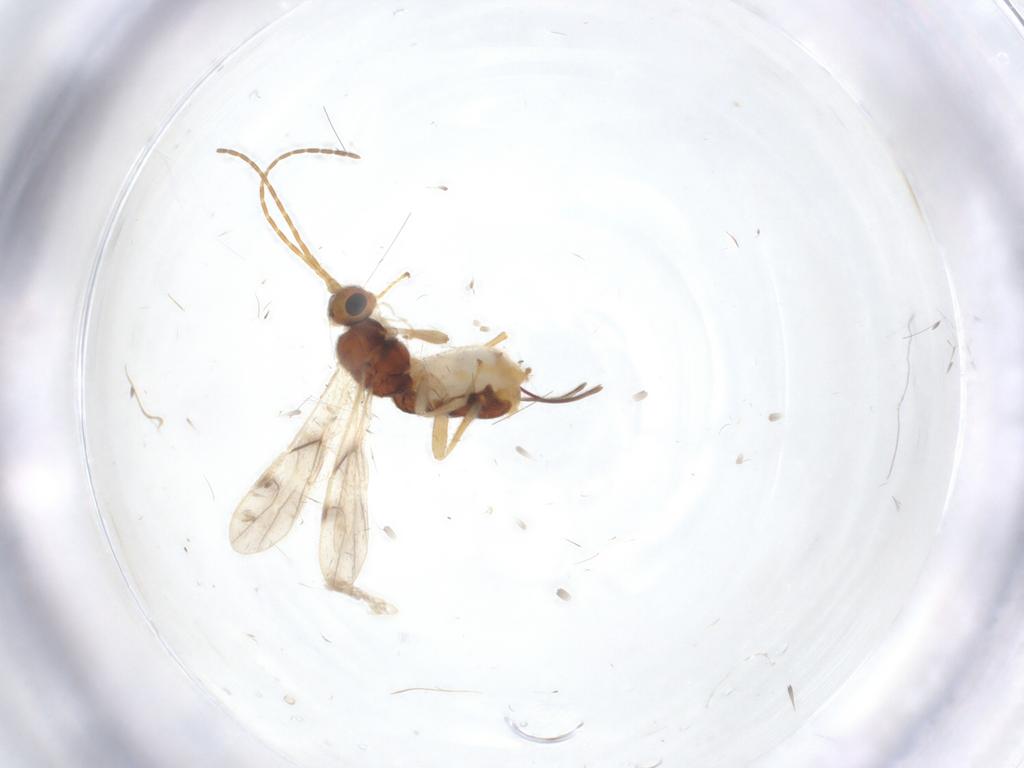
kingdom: Animalia
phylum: Arthropoda
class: Insecta
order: Hymenoptera
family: Braconidae
